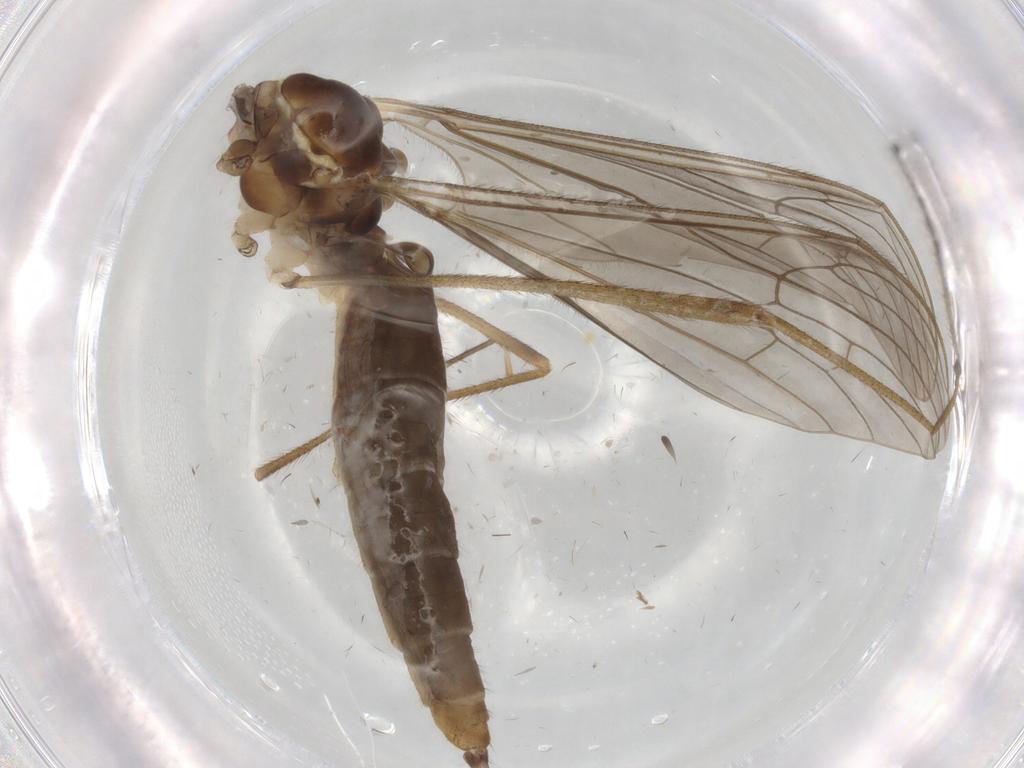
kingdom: Animalia
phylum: Arthropoda
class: Insecta
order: Diptera
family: Limoniidae
